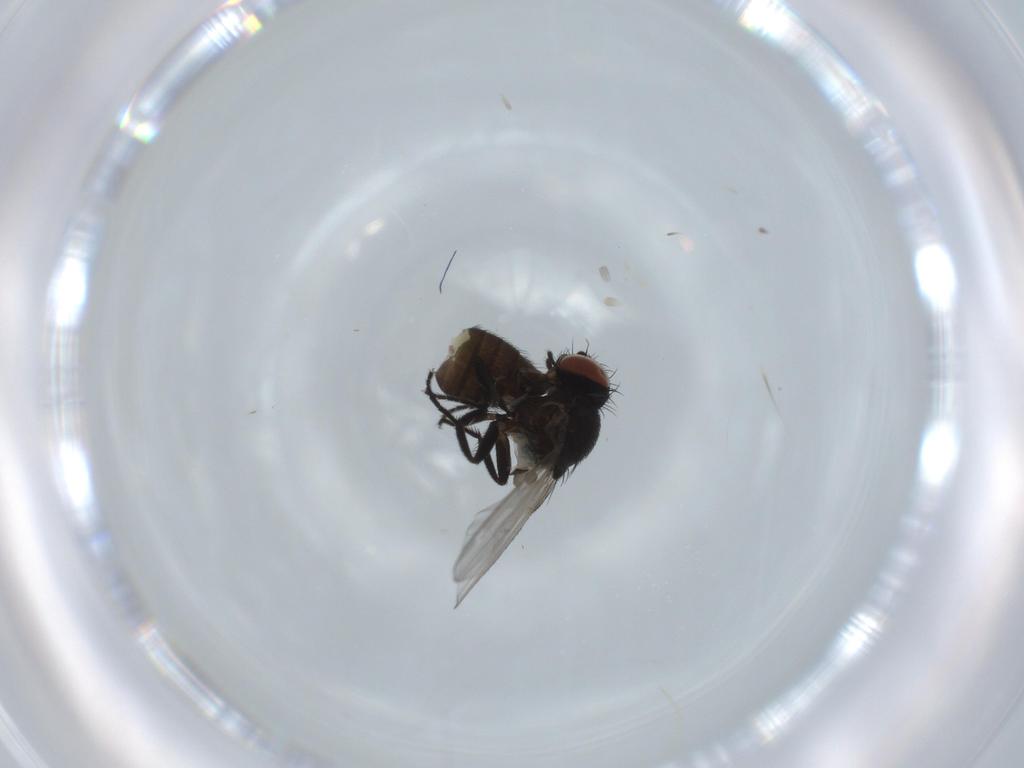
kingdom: Animalia
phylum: Arthropoda
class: Insecta
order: Diptera
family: Milichiidae
